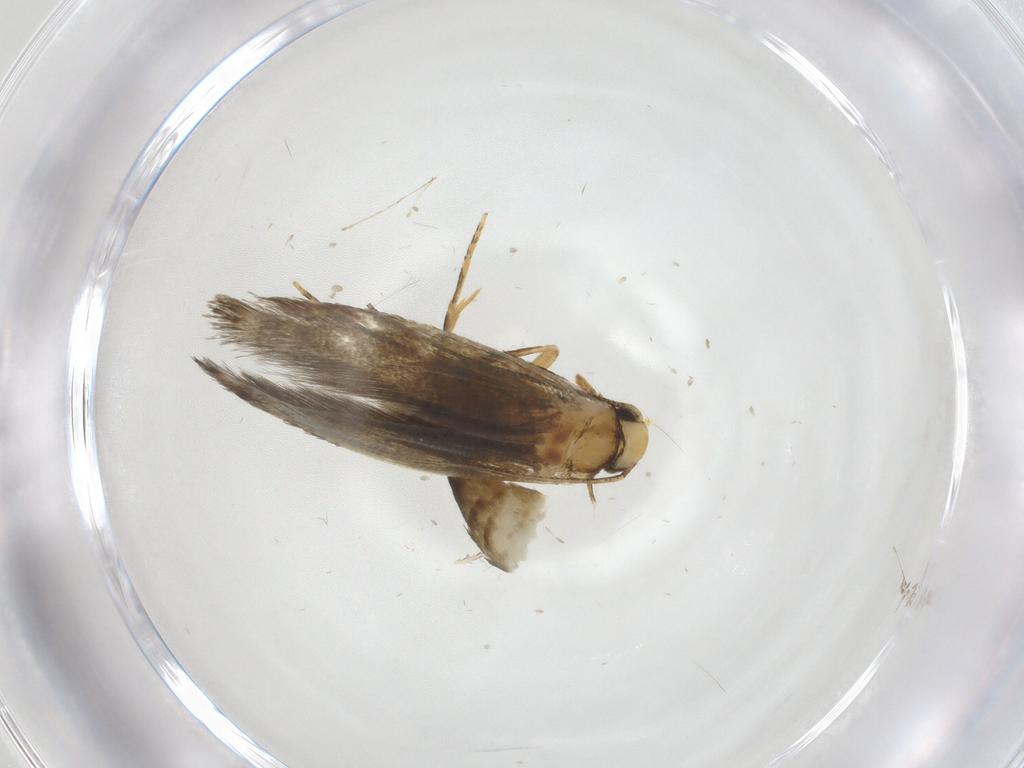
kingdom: Animalia
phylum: Arthropoda
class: Insecta
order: Lepidoptera
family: Tineidae
